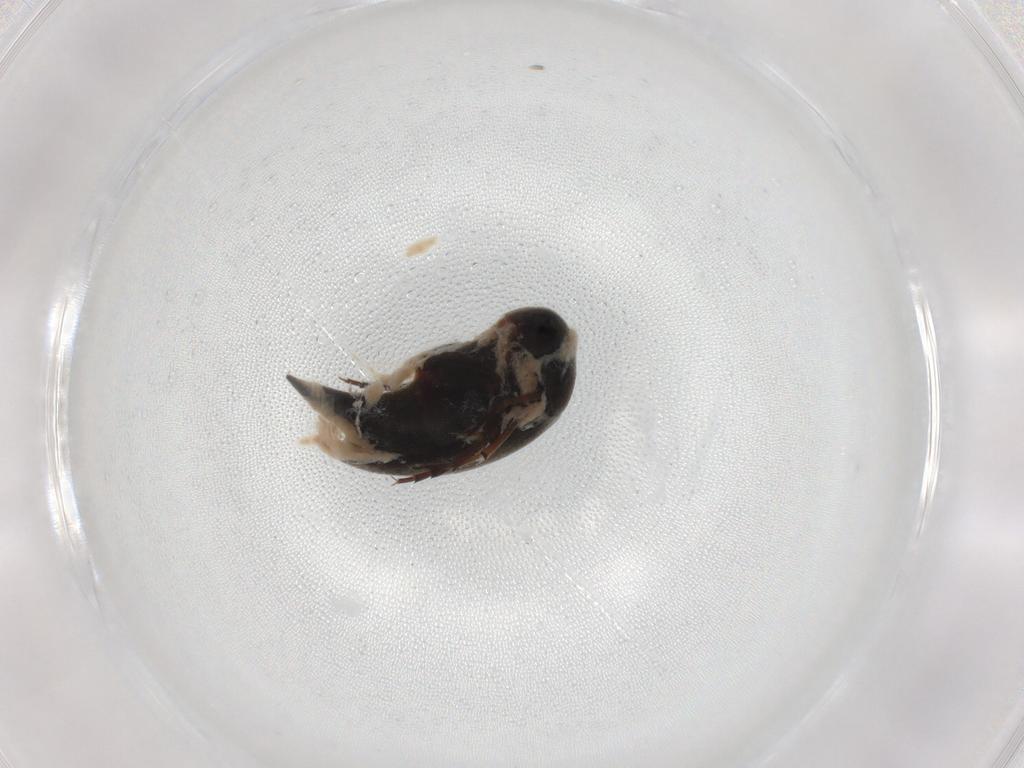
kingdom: Animalia
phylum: Arthropoda
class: Insecta
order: Coleoptera
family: Mordellidae
